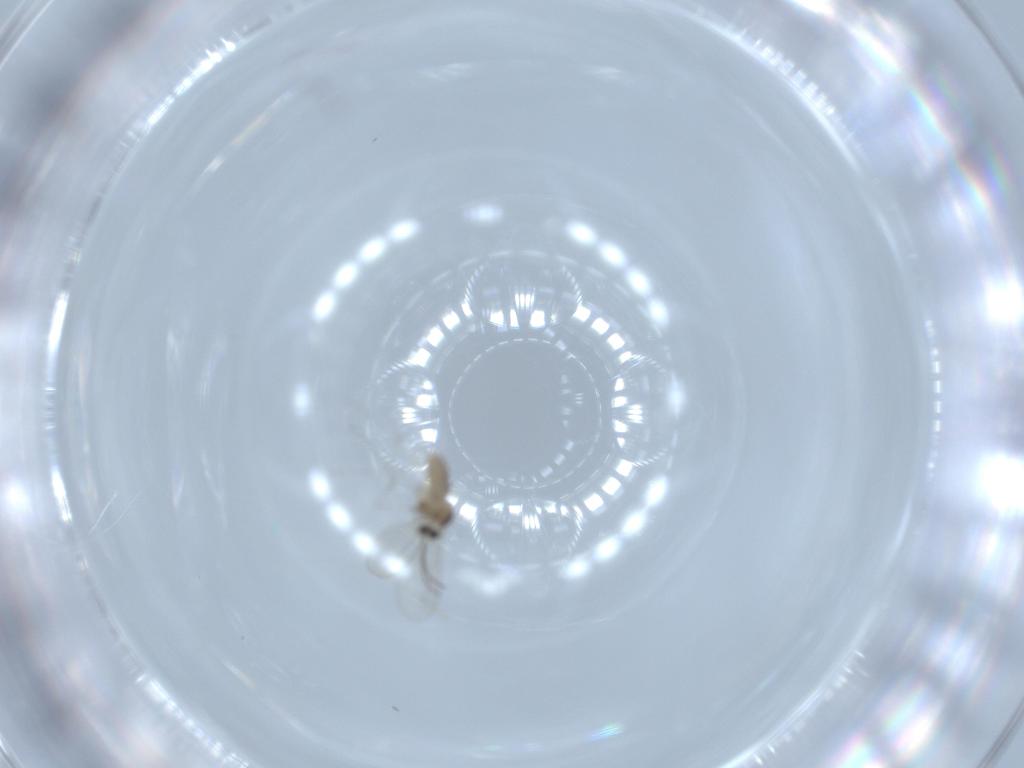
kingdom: Animalia
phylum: Arthropoda
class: Insecta
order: Diptera
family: Cecidomyiidae
